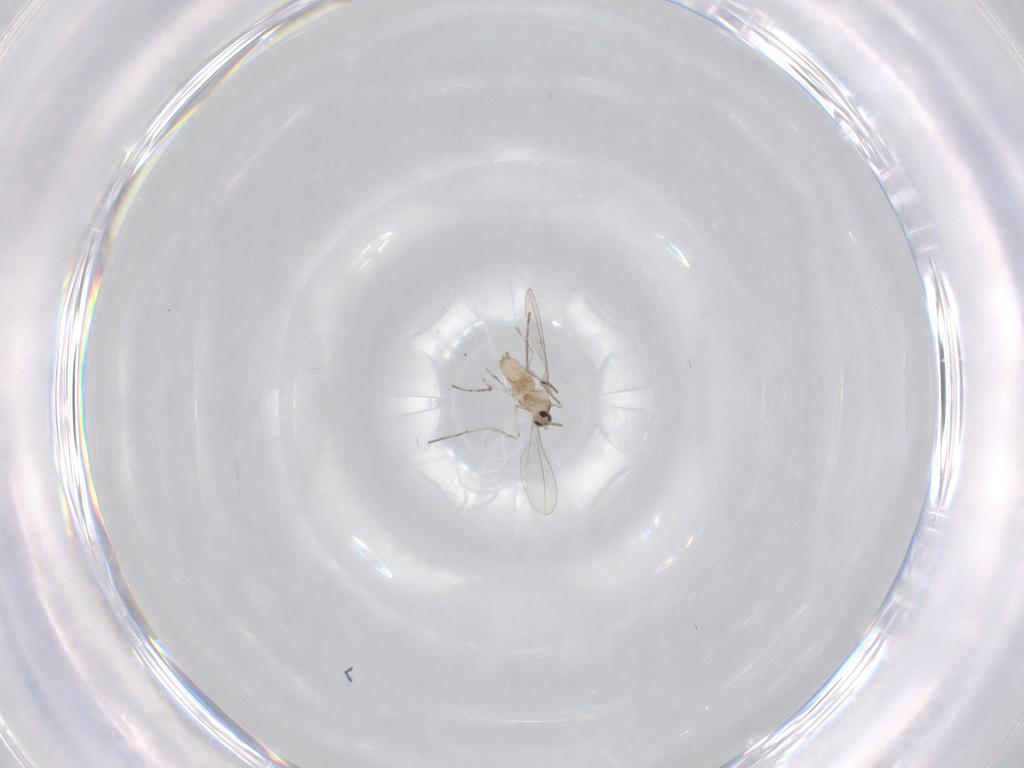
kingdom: Animalia
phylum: Arthropoda
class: Insecta
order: Diptera
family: Cecidomyiidae
